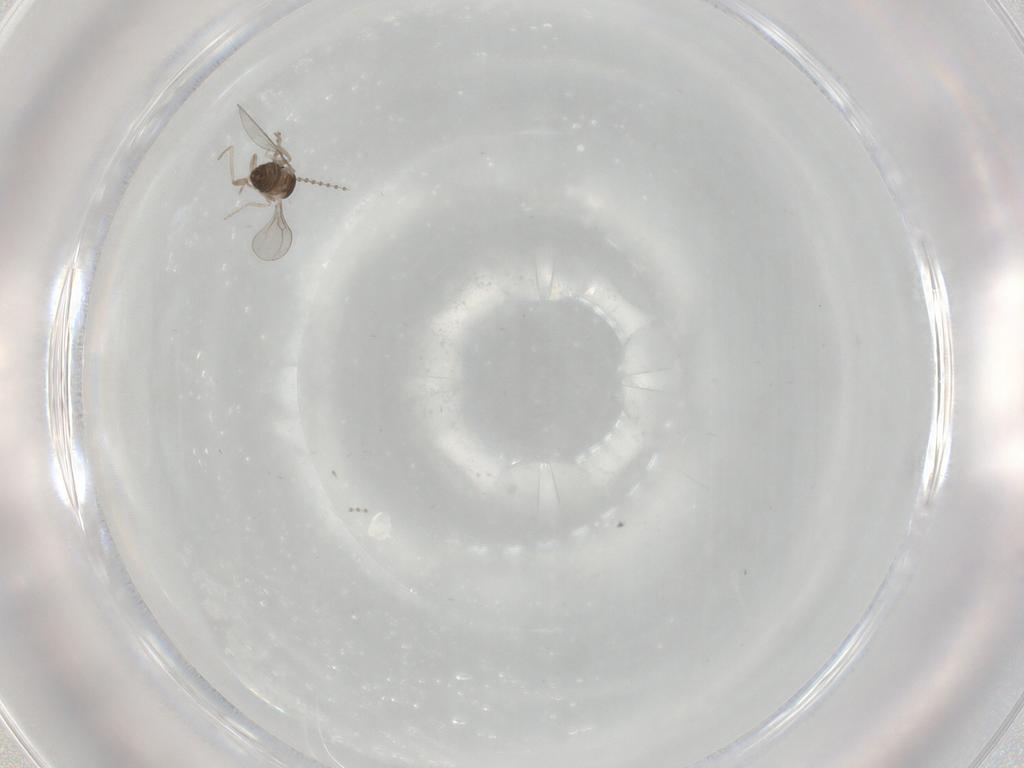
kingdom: Animalia
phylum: Arthropoda
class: Insecta
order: Diptera
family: Cecidomyiidae
